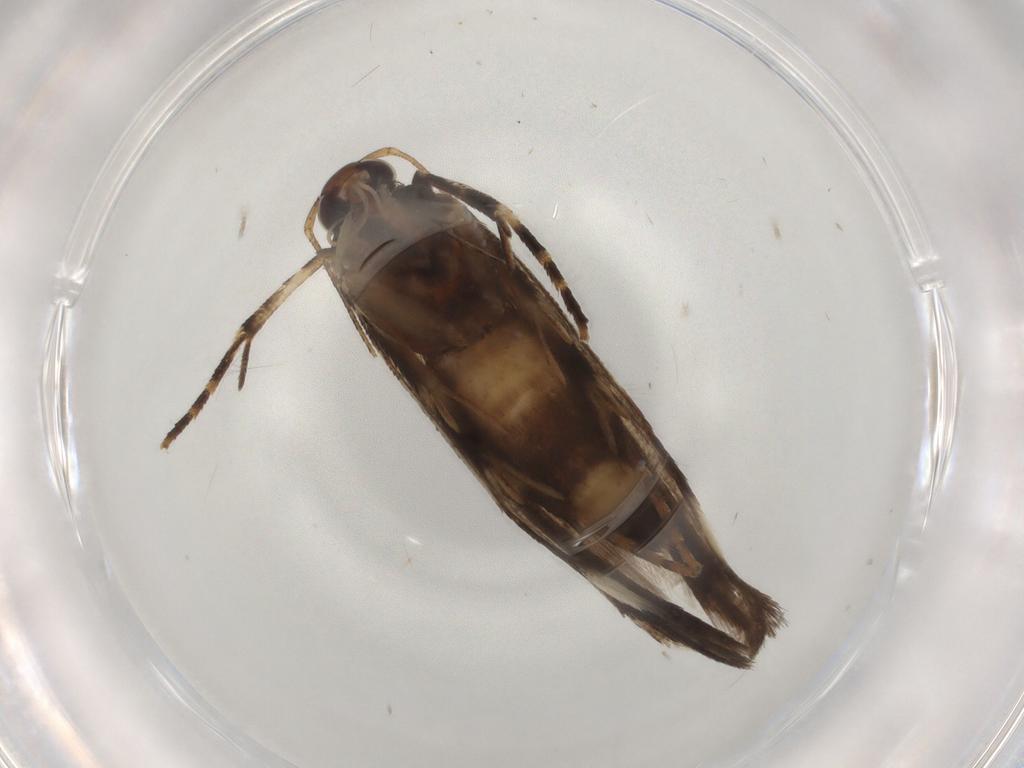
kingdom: Animalia
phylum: Arthropoda
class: Insecta
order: Lepidoptera
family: Gelechiidae
